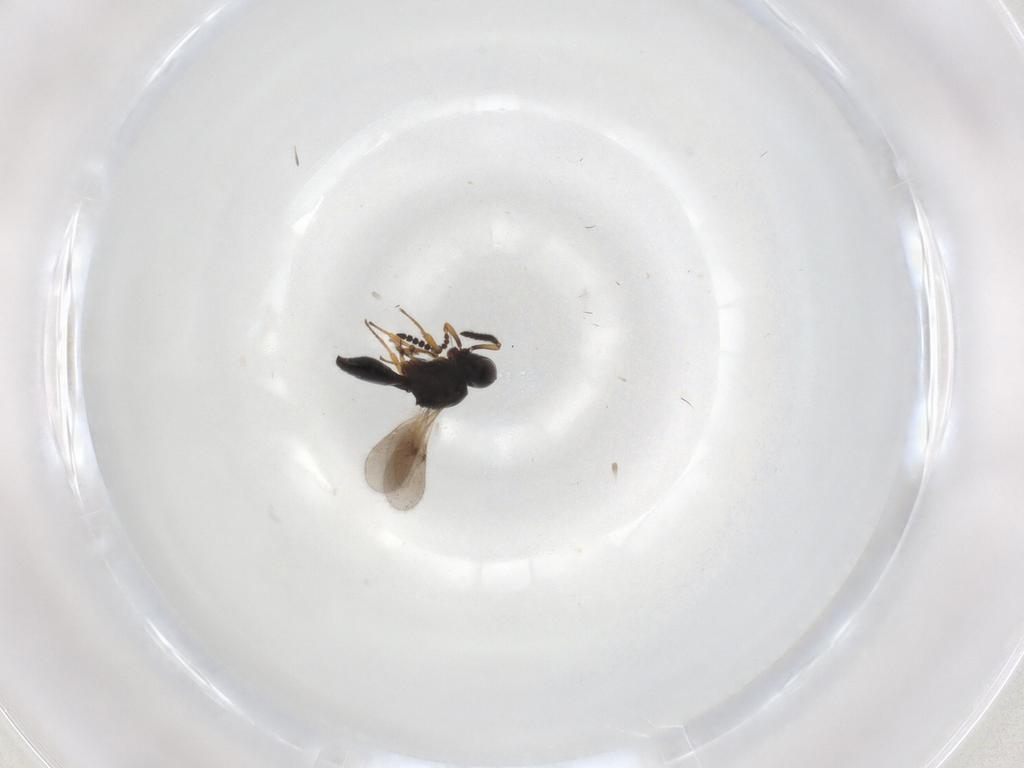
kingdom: Animalia
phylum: Arthropoda
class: Insecta
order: Hymenoptera
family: Scelionidae
